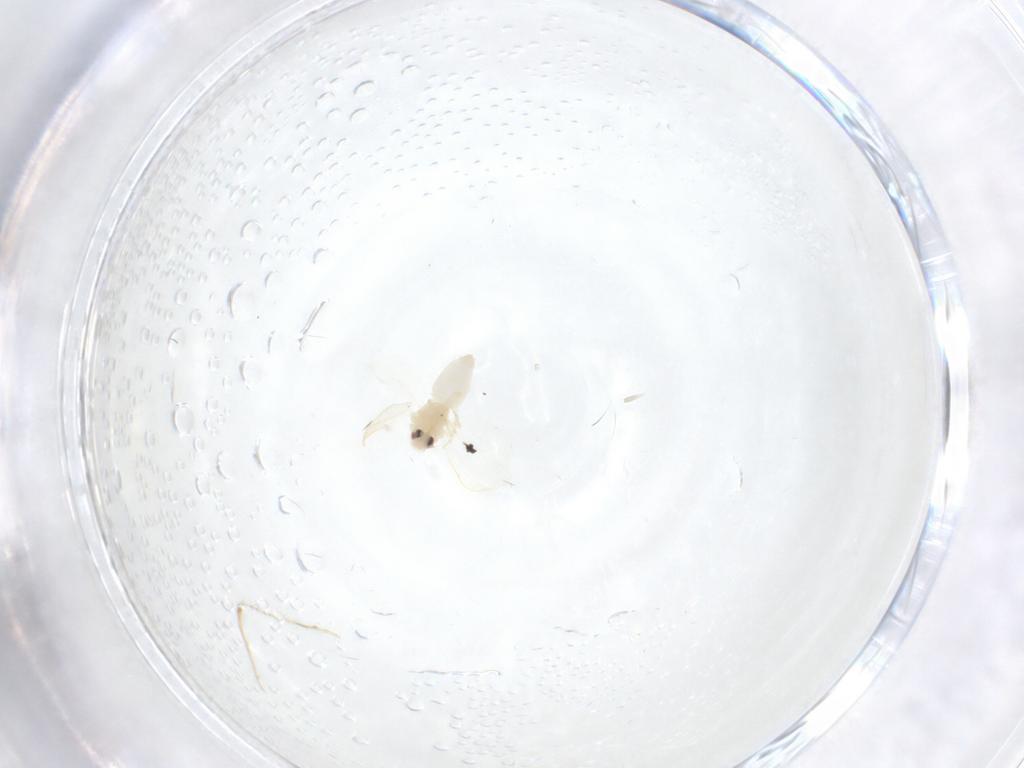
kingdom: Animalia
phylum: Arthropoda
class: Insecta
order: Hemiptera
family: Aleyrodidae
